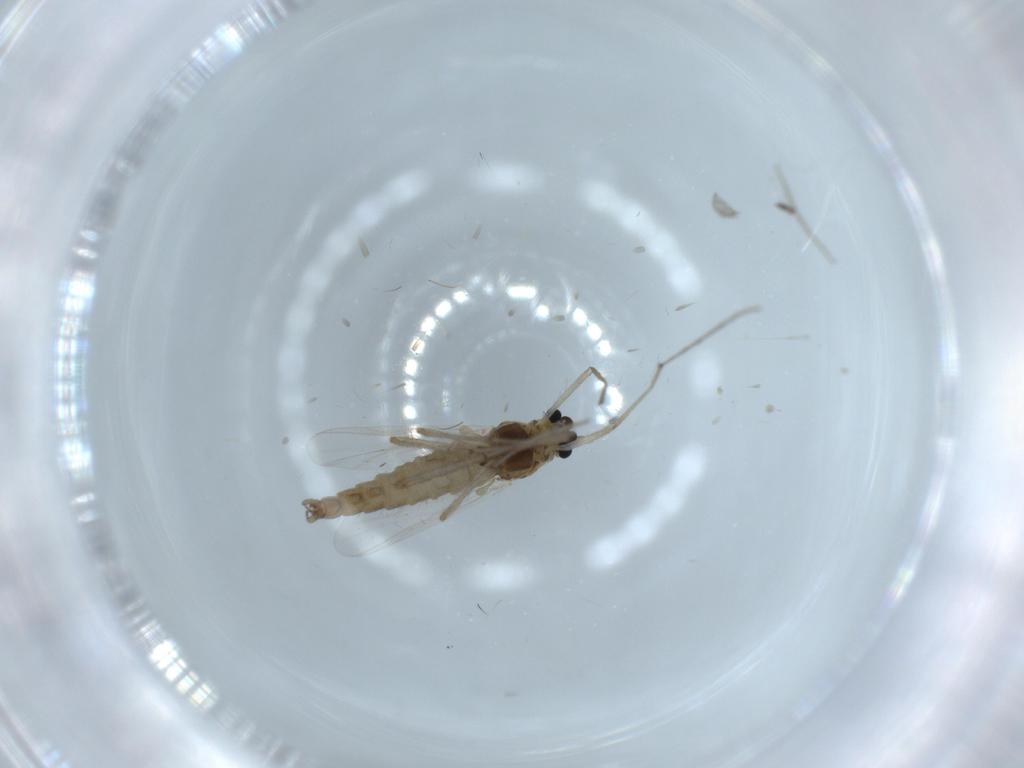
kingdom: Animalia
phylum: Arthropoda
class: Insecta
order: Diptera
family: Chironomidae
